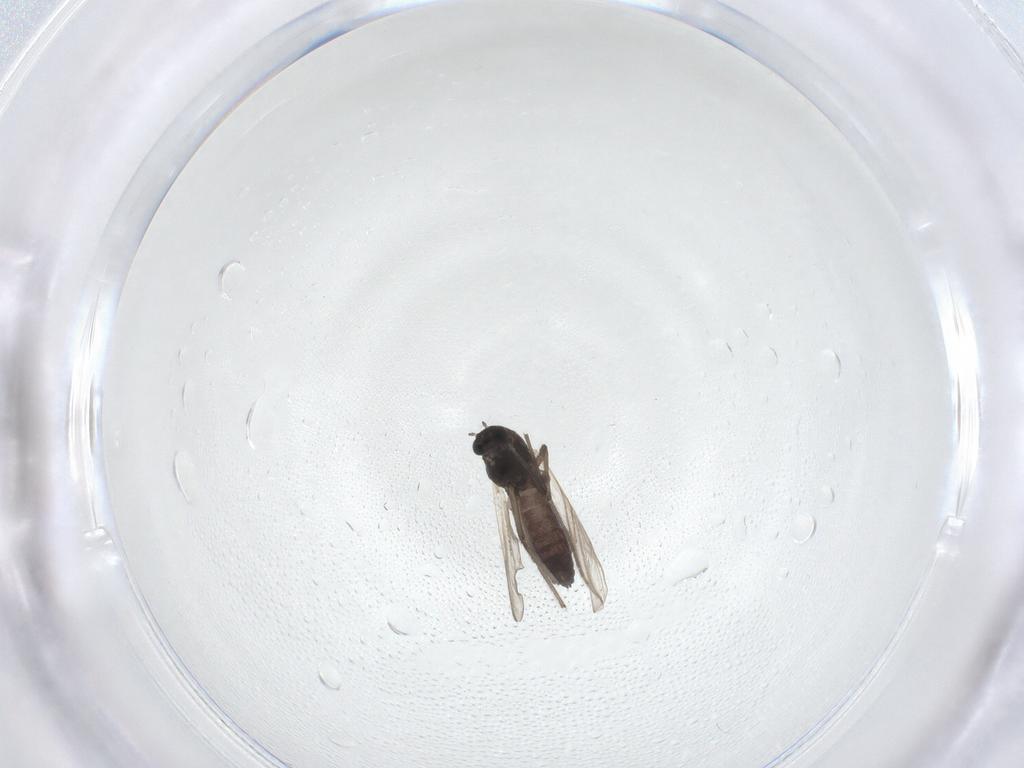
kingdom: Animalia
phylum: Arthropoda
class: Insecta
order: Diptera
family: Chironomidae
